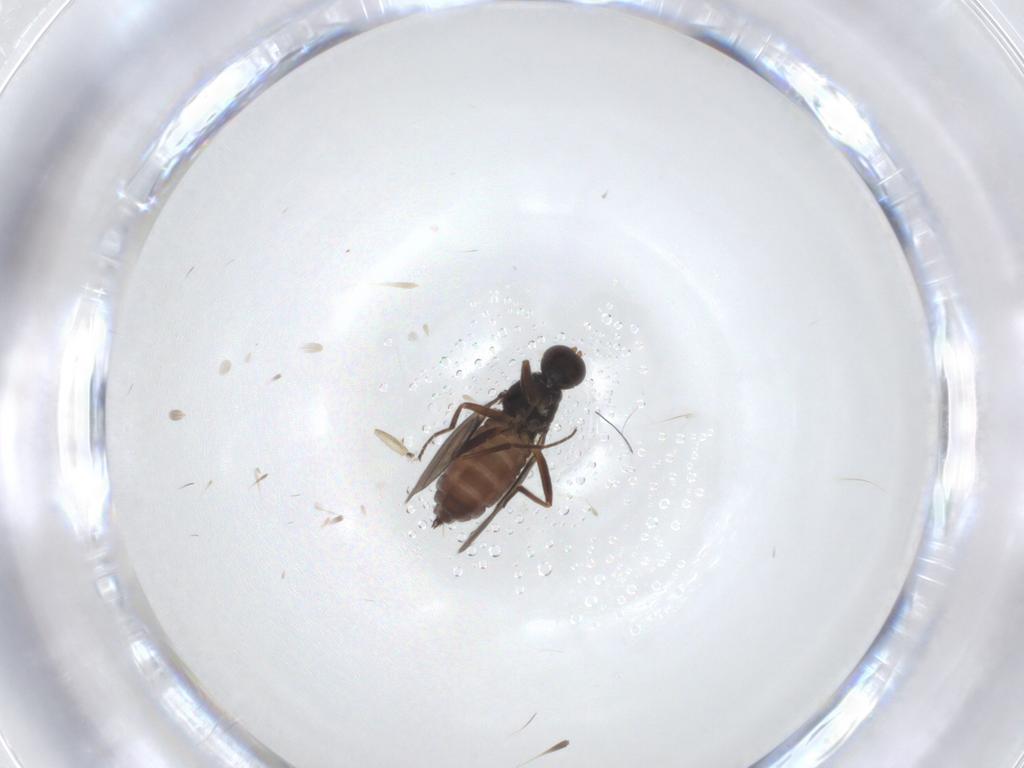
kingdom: Animalia
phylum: Arthropoda
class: Insecta
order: Diptera
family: Hybotidae
